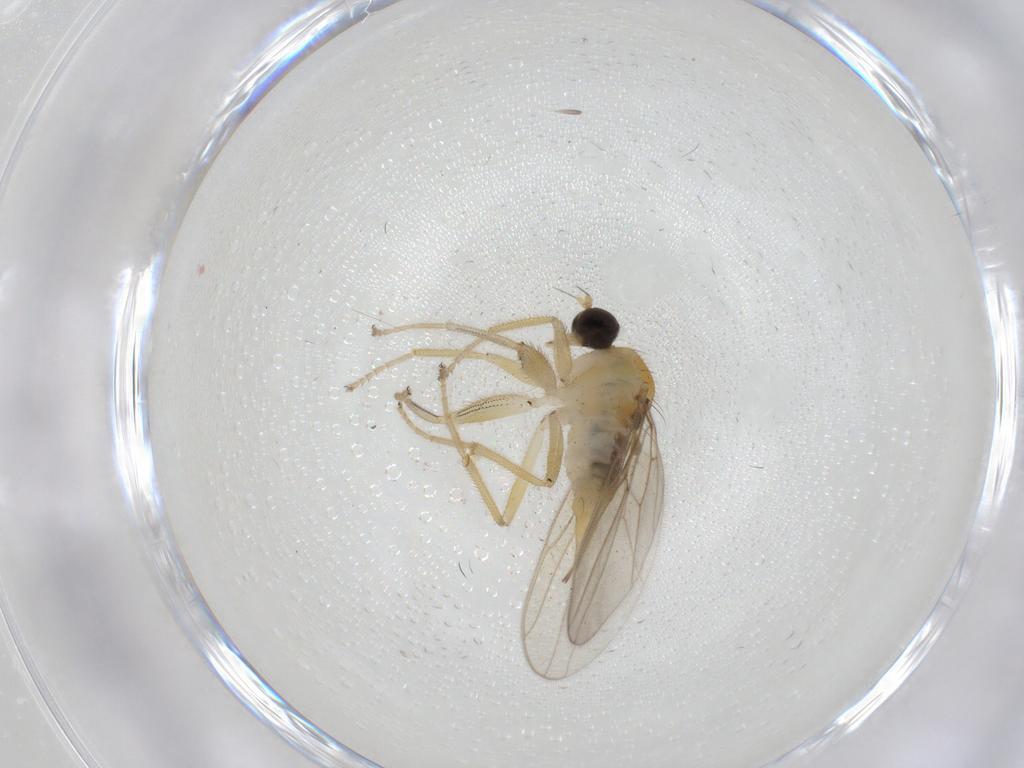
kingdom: Animalia
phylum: Arthropoda
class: Insecta
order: Diptera
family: Hybotidae
